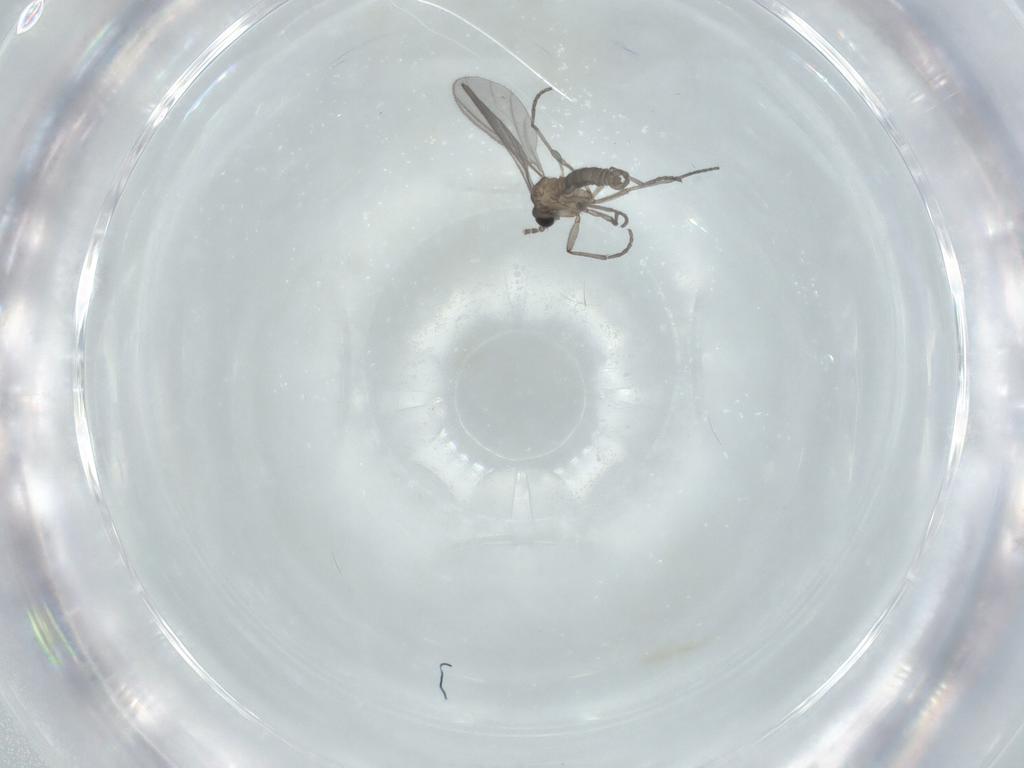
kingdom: Animalia
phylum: Arthropoda
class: Insecta
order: Diptera
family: Sciaridae
